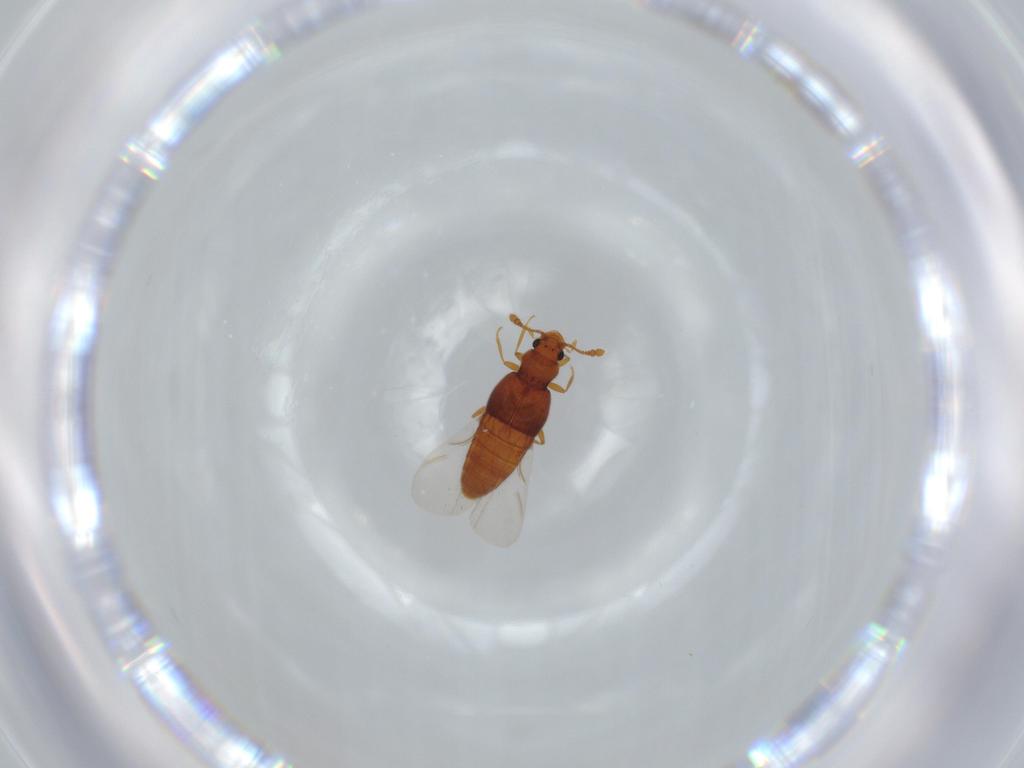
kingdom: Animalia
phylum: Arthropoda
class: Insecta
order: Coleoptera
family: Staphylinidae
